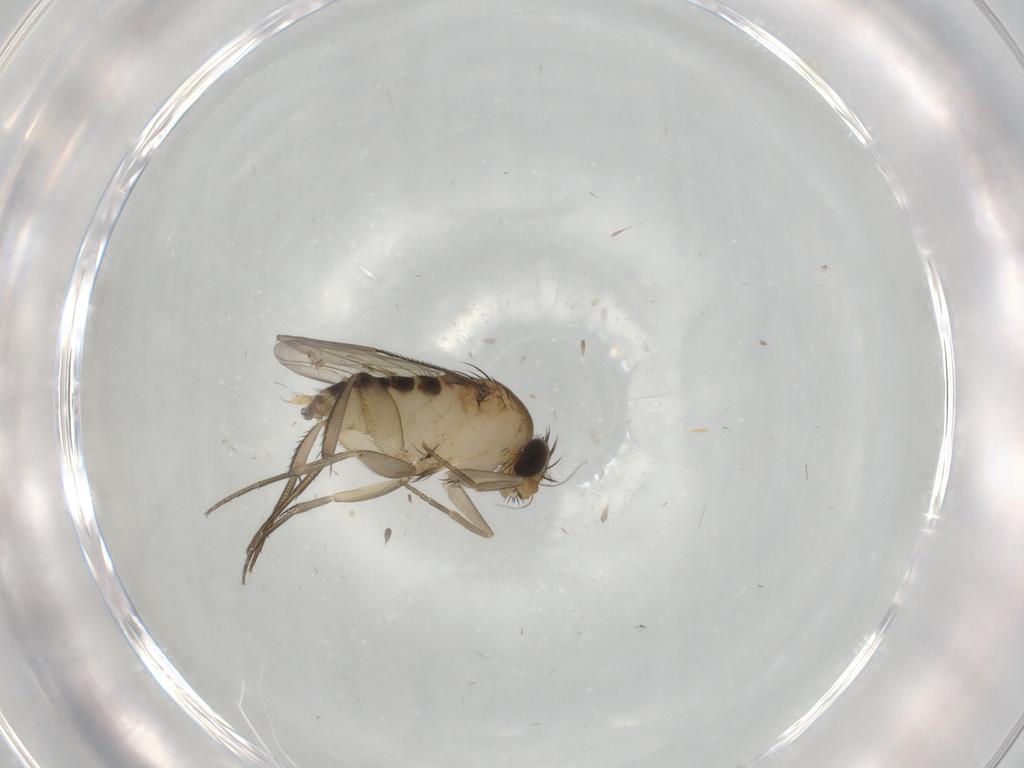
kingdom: Animalia
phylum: Arthropoda
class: Insecta
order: Diptera
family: Phoridae
